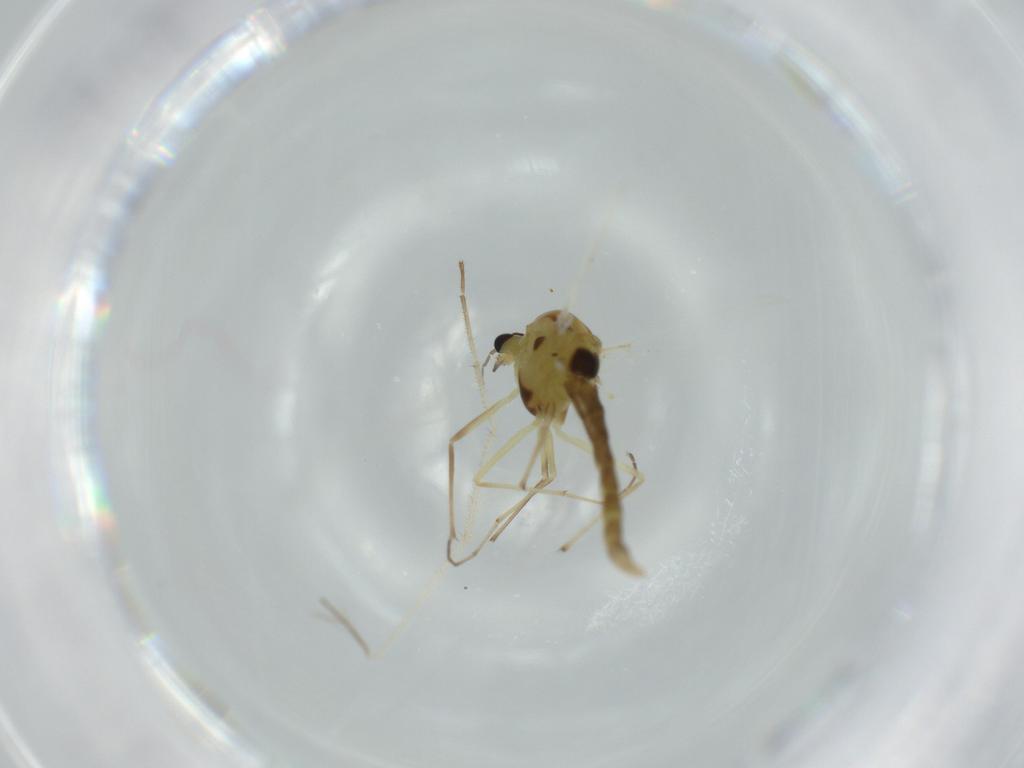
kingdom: Animalia
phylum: Arthropoda
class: Insecta
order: Diptera
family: Chironomidae
